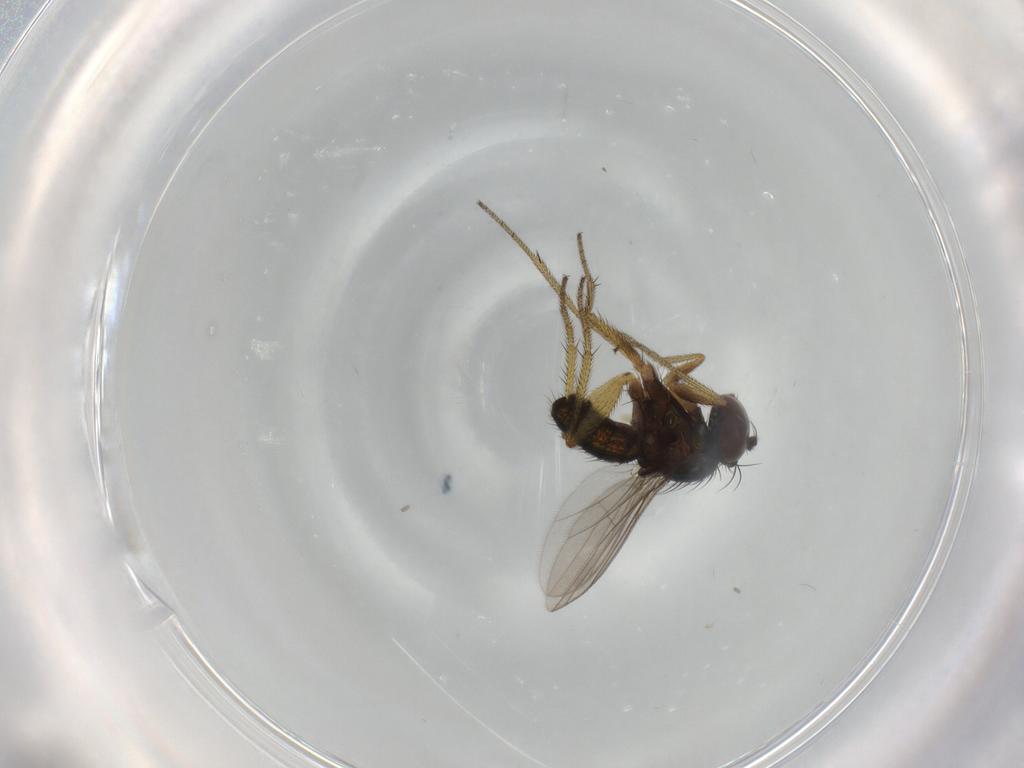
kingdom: Animalia
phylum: Arthropoda
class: Insecta
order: Diptera
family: Dolichopodidae
